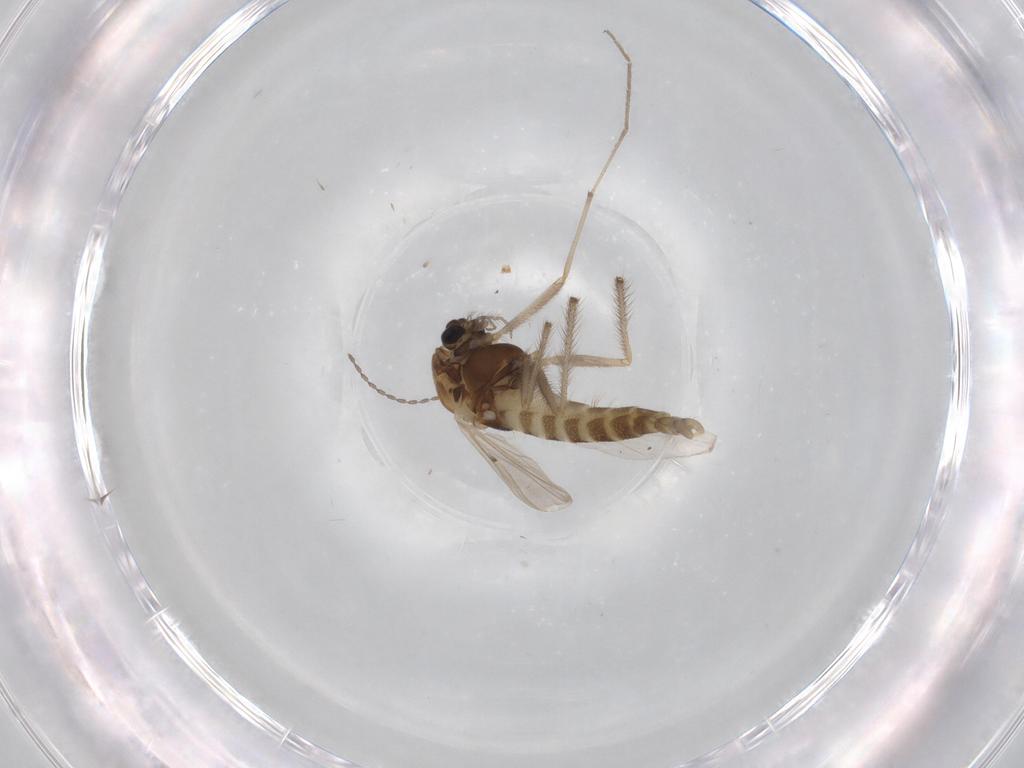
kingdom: Animalia
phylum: Arthropoda
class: Insecta
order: Diptera
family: Chironomidae
